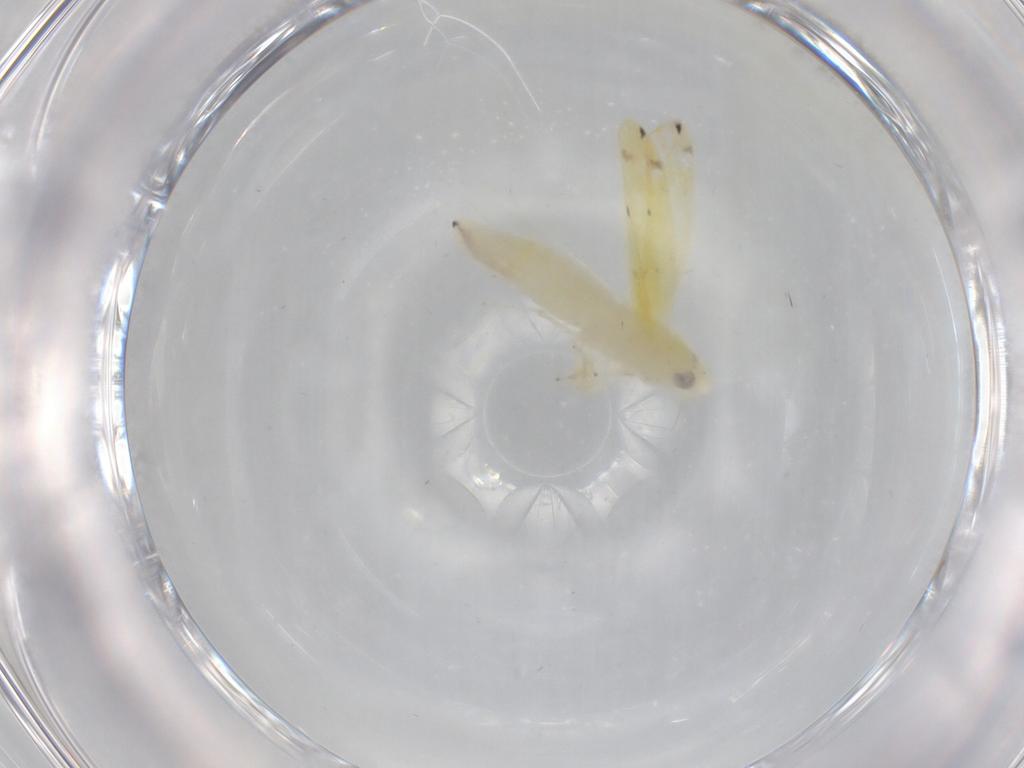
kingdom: Animalia
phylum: Arthropoda
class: Insecta
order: Hemiptera
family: Cicadellidae
